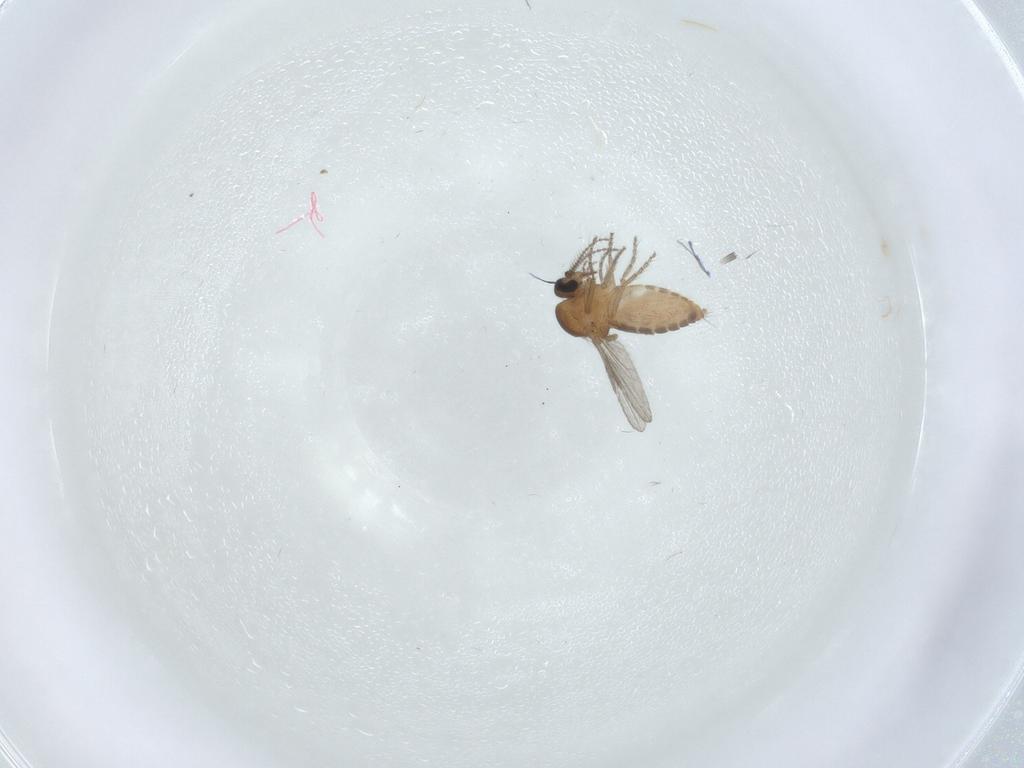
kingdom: Animalia
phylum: Arthropoda
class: Insecta
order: Diptera
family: Ceratopogonidae
